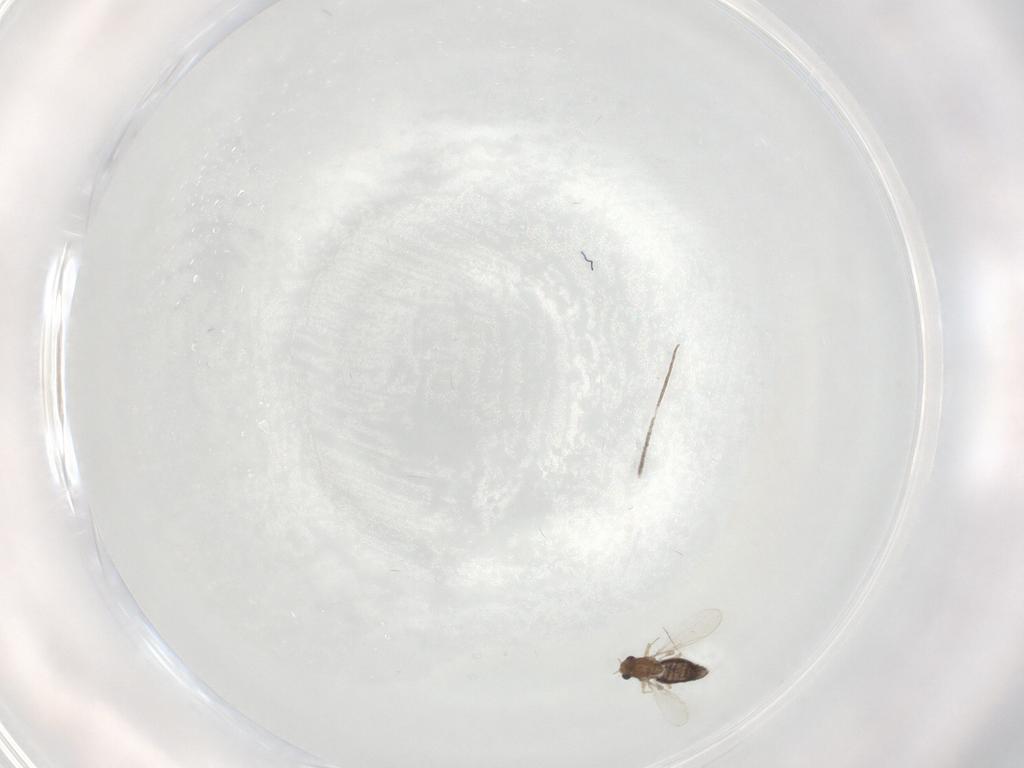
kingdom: Animalia
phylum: Arthropoda
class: Insecta
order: Diptera
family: Chironomidae
